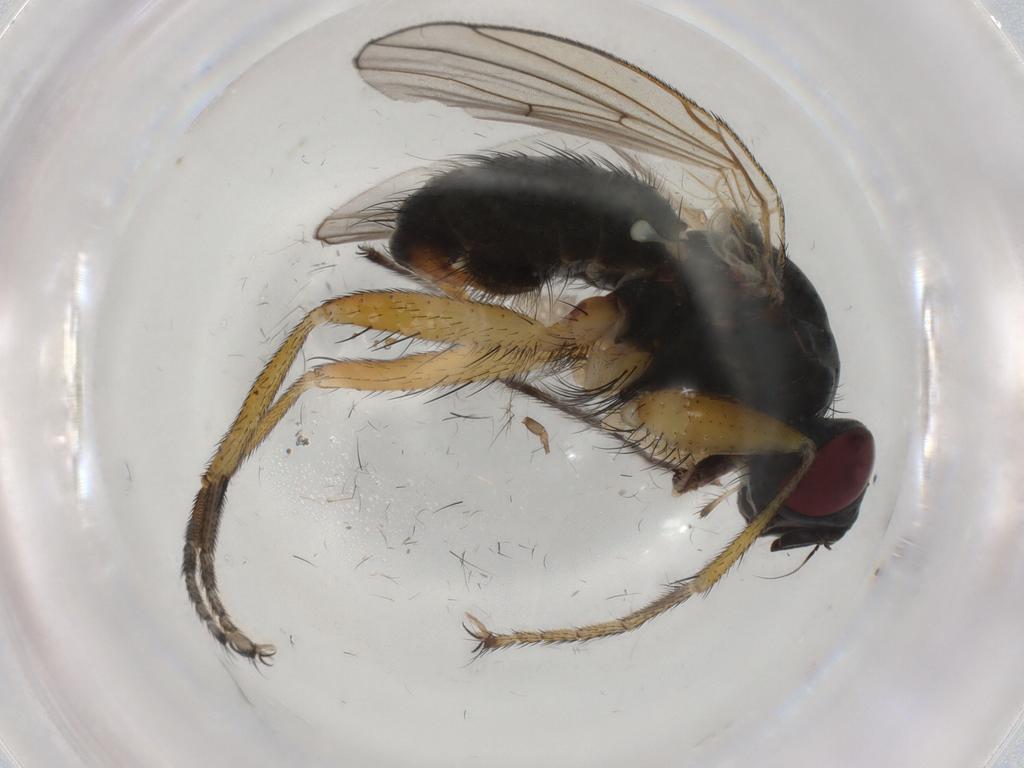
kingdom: Animalia
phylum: Arthropoda
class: Insecta
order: Diptera
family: Muscidae
